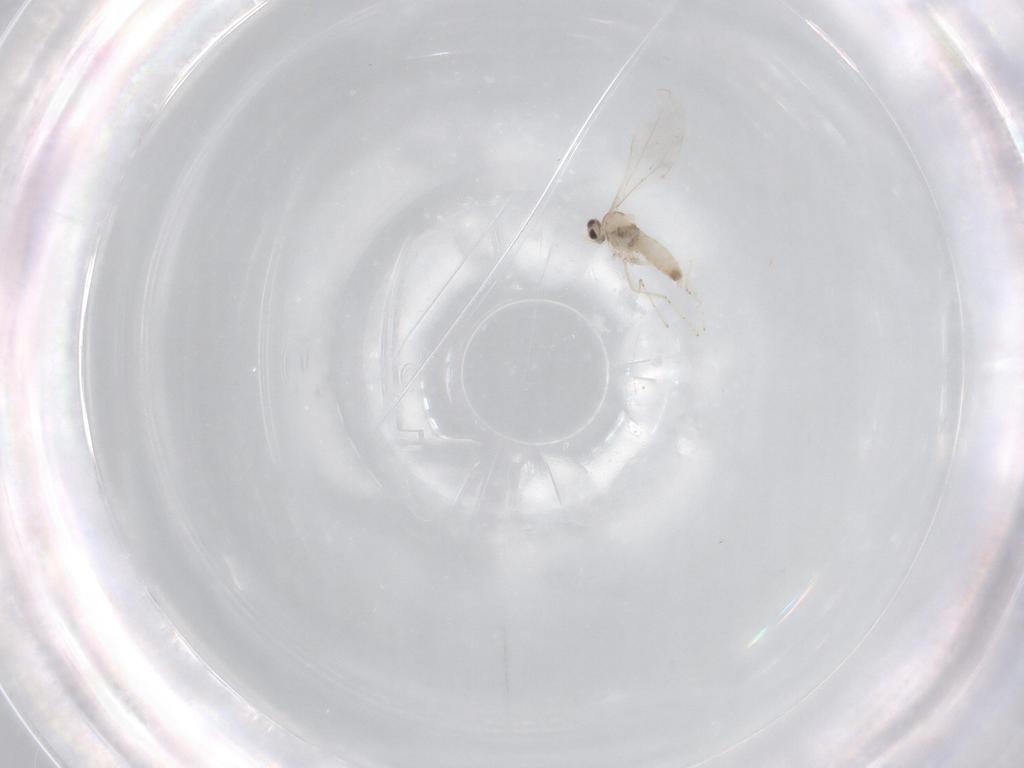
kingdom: Animalia
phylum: Arthropoda
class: Insecta
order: Diptera
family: Phoridae
